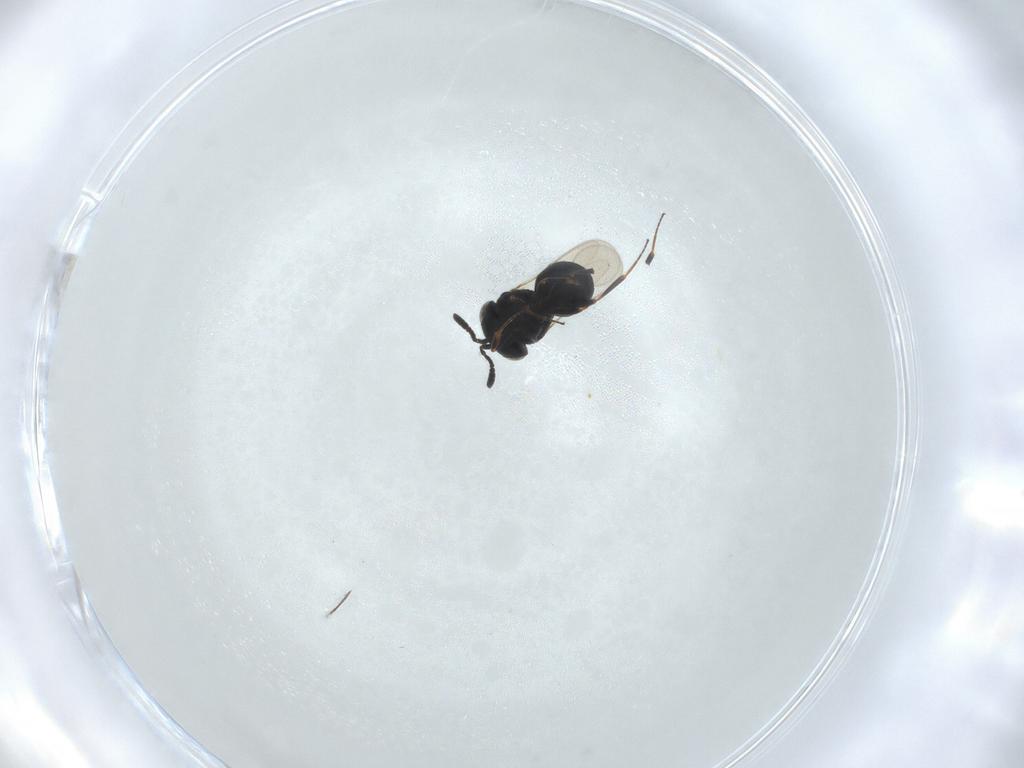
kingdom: Animalia
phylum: Arthropoda
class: Insecta
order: Hymenoptera
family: Scelionidae
